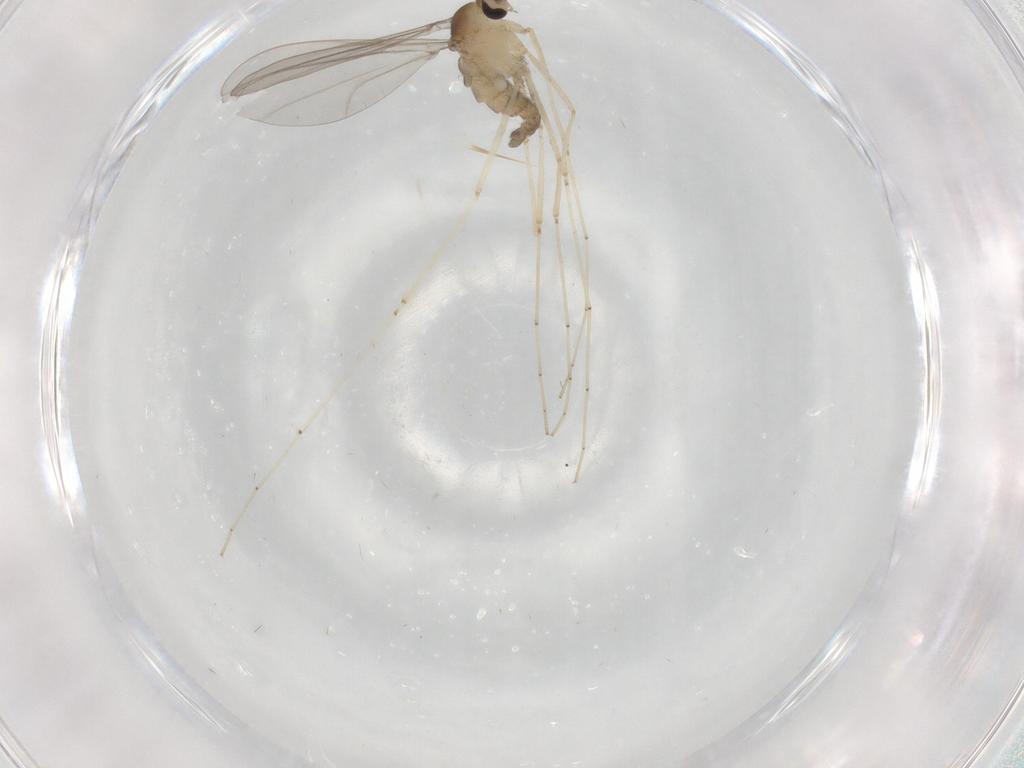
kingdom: Animalia
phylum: Arthropoda
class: Insecta
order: Diptera
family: Cecidomyiidae
